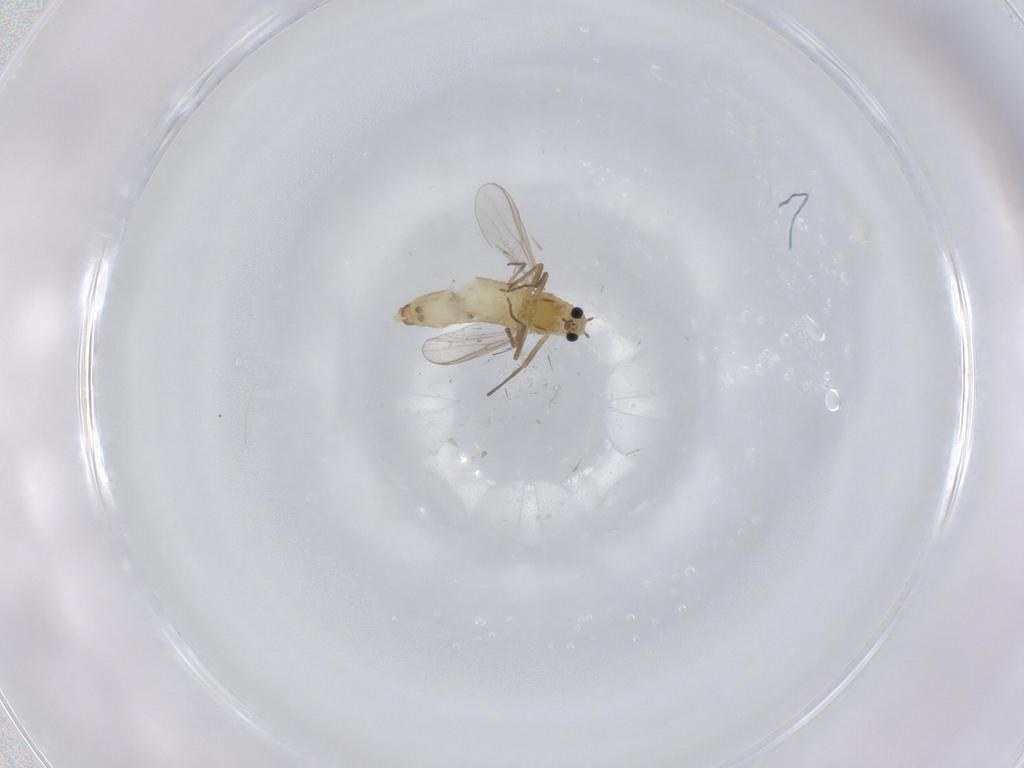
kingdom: Animalia
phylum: Arthropoda
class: Insecta
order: Diptera
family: Chironomidae
